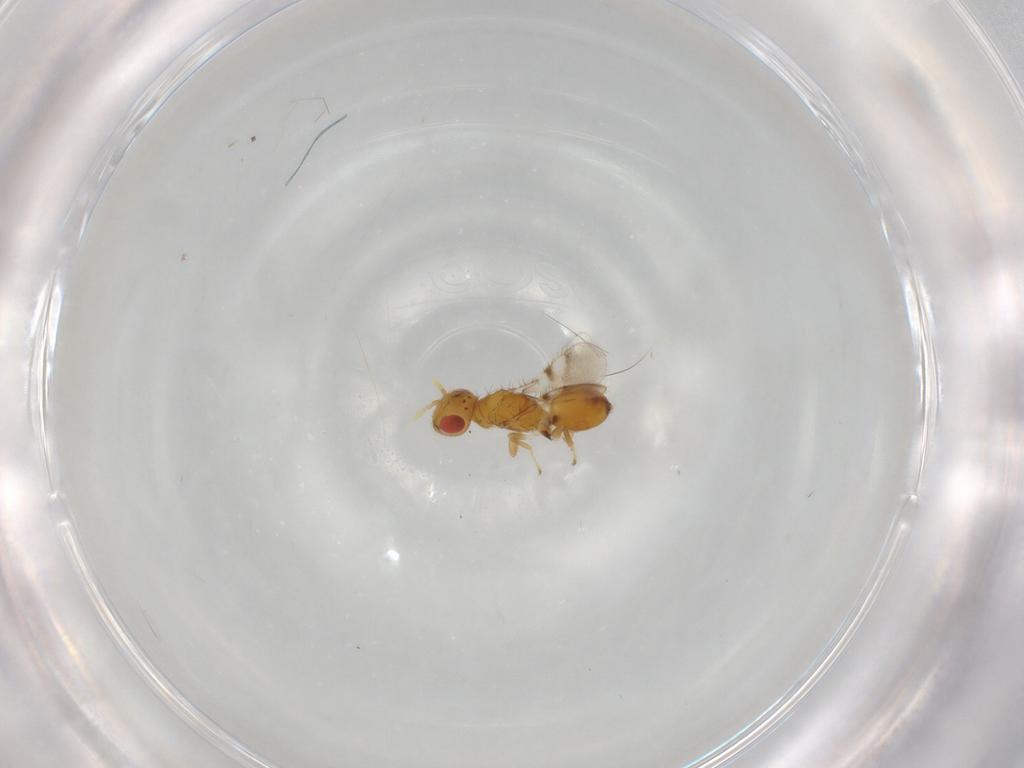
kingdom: Animalia
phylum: Arthropoda
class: Insecta
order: Hymenoptera
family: Eulophidae
